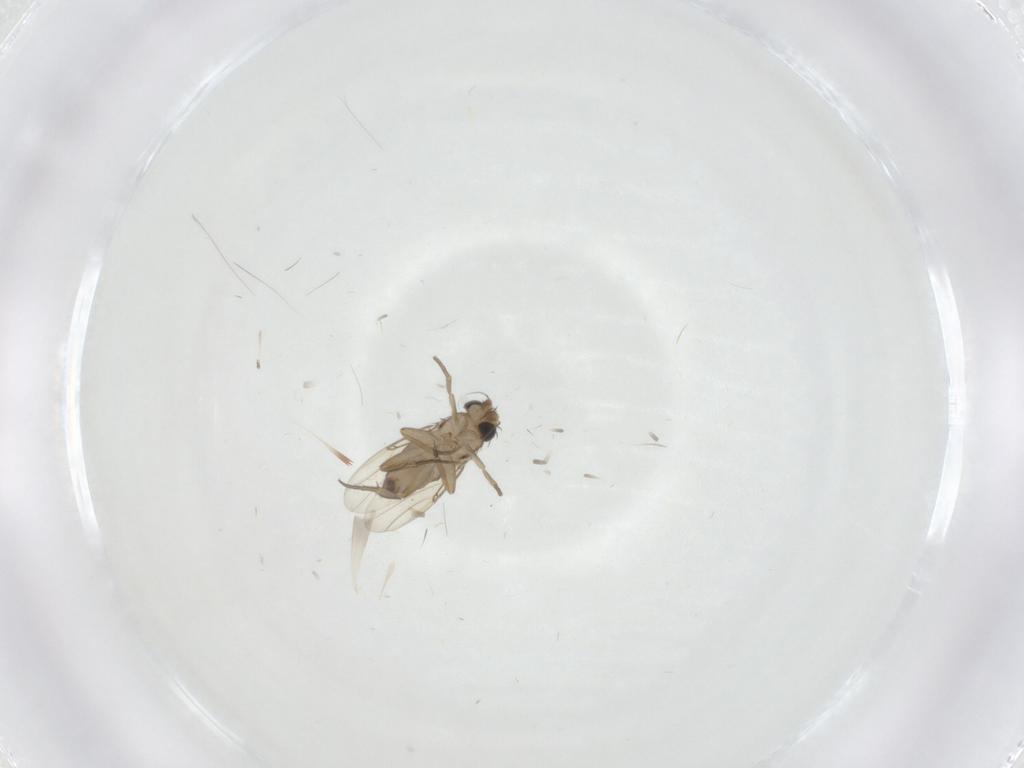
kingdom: Animalia
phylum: Arthropoda
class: Insecta
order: Diptera
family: Phoridae
